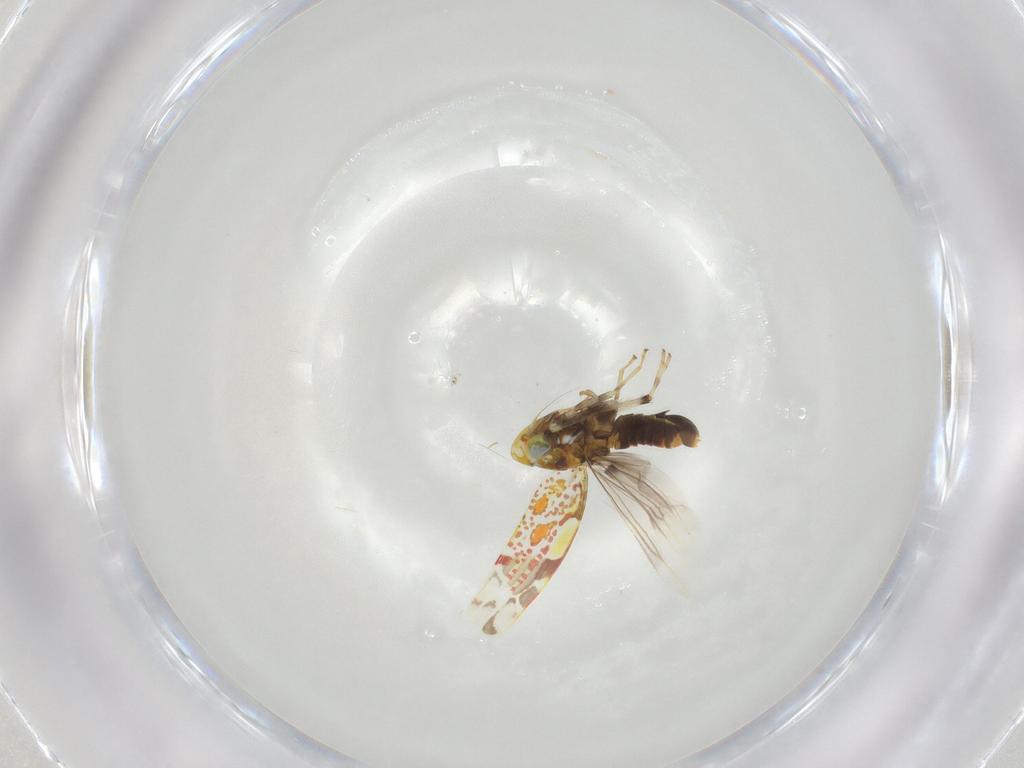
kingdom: Animalia
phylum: Arthropoda
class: Insecta
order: Hemiptera
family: Cicadellidae
